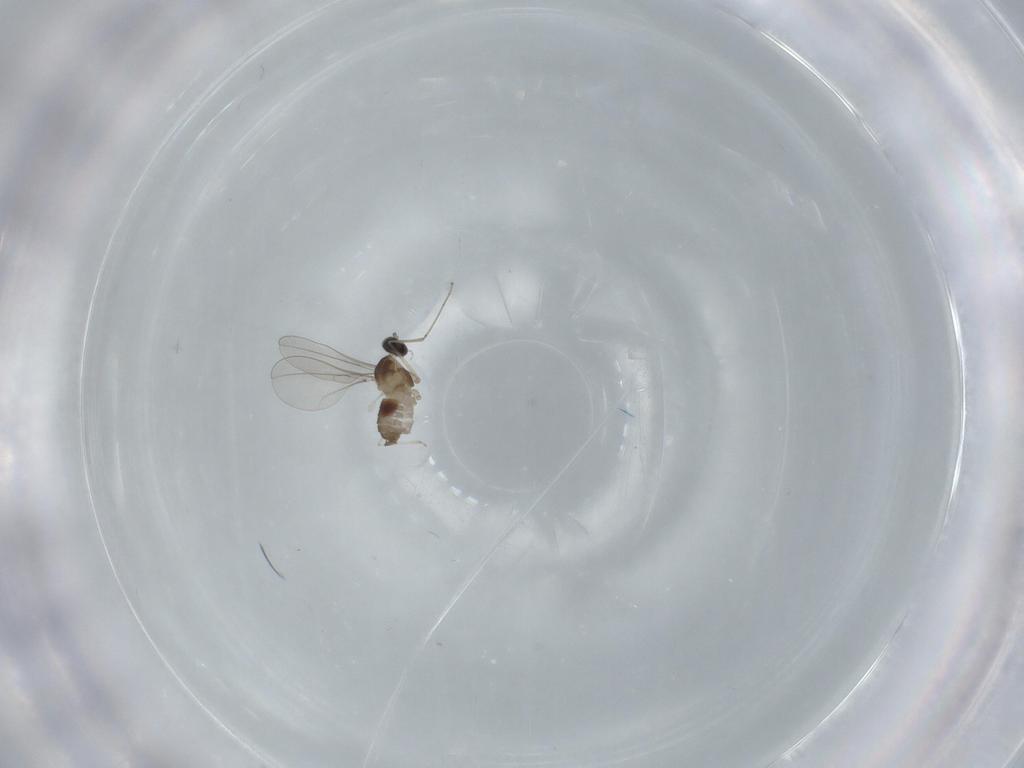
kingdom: Animalia
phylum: Arthropoda
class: Insecta
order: Diptera
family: Cecidomyiidae
